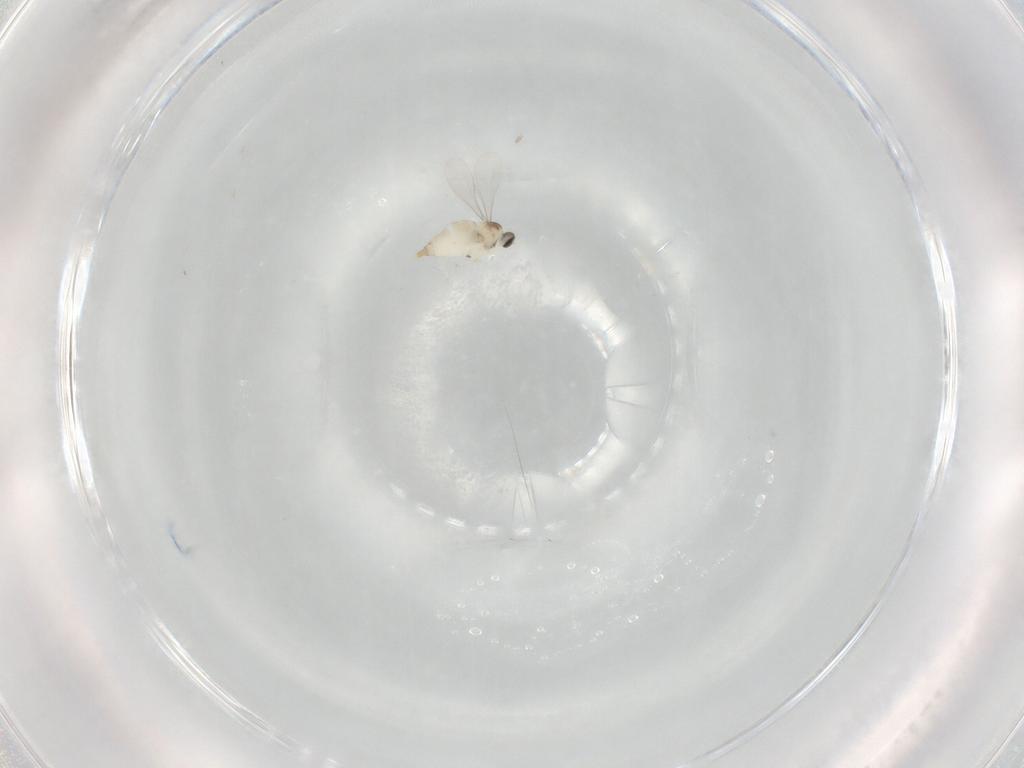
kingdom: Animalia
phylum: Arthropoda
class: Insecta
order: Diptera
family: Cecidomyiidae
